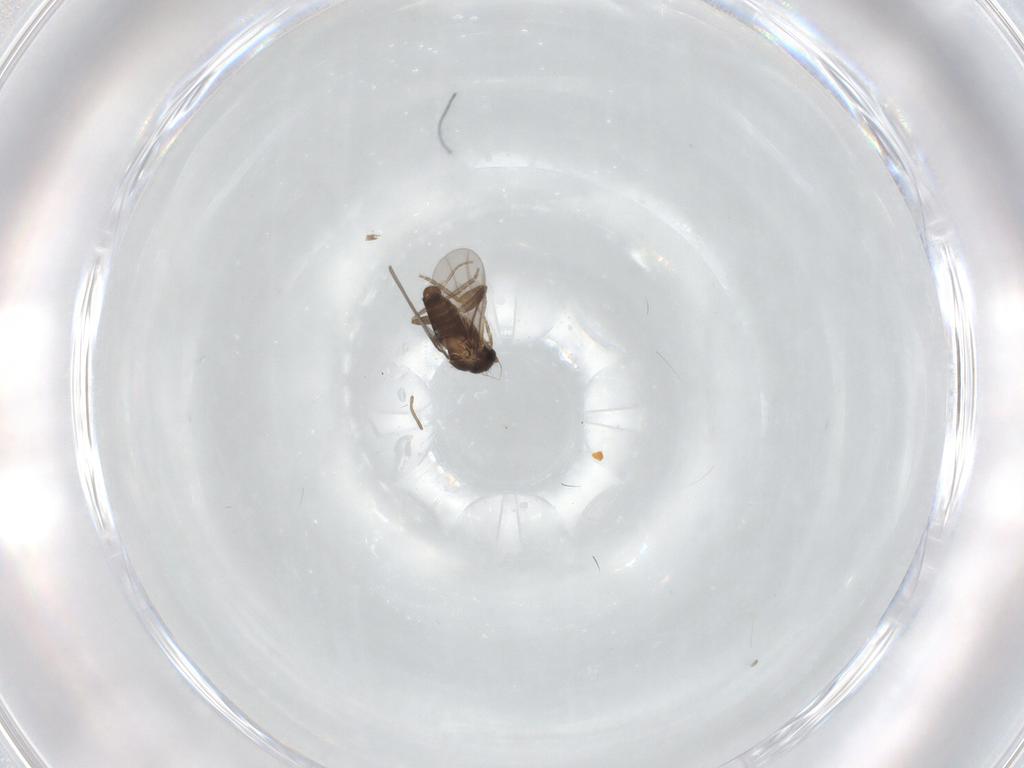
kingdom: Animalia
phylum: Arthropoda
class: Insecta
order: Diptera
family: Chironomidae
